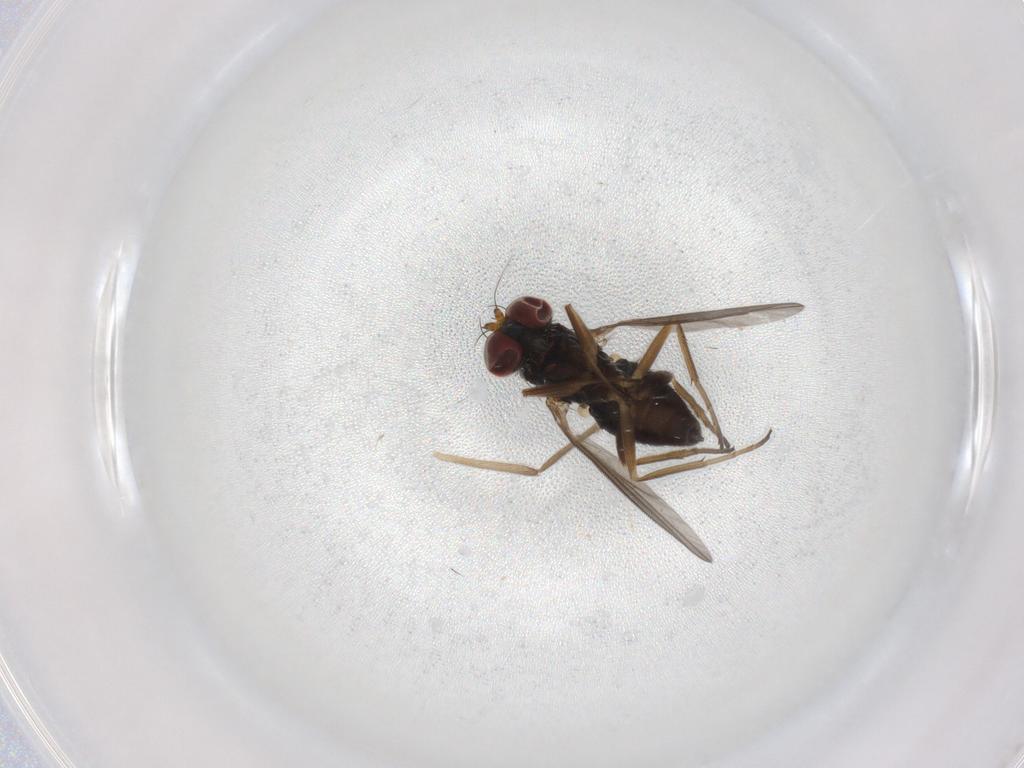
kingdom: Animalia
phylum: Arthropoda
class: Insecta
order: Diptera
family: Dolichopodidae
